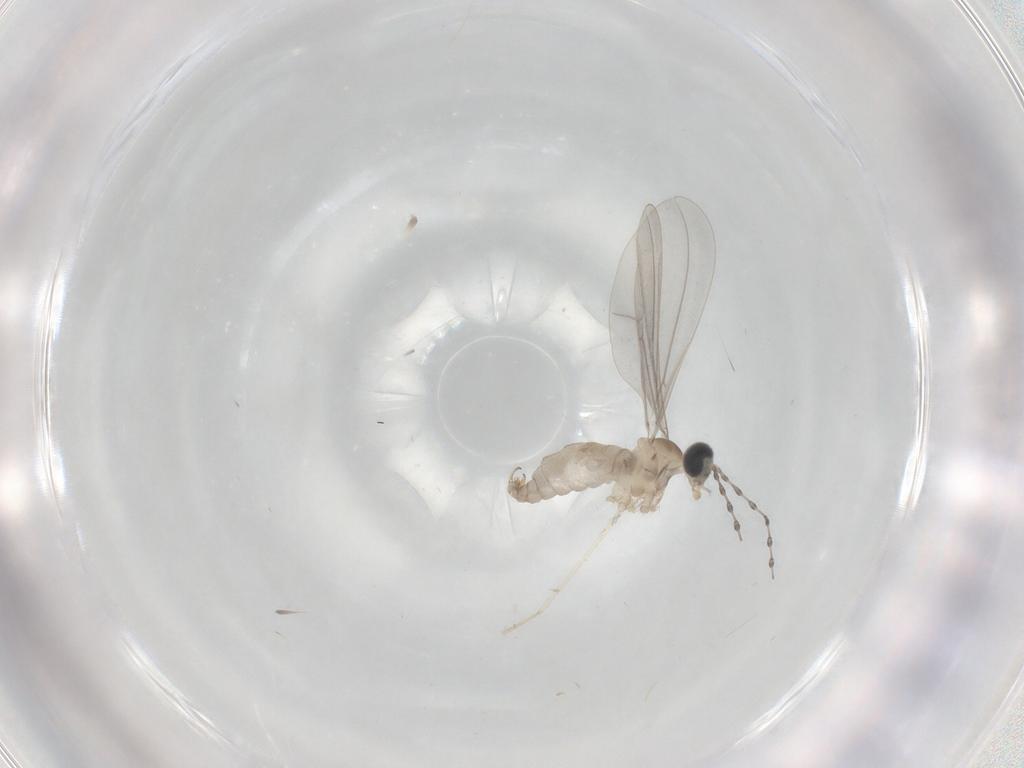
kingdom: Animalia
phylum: Arthropoda
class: Insecta
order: Diptera
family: Cecidomyiidae
